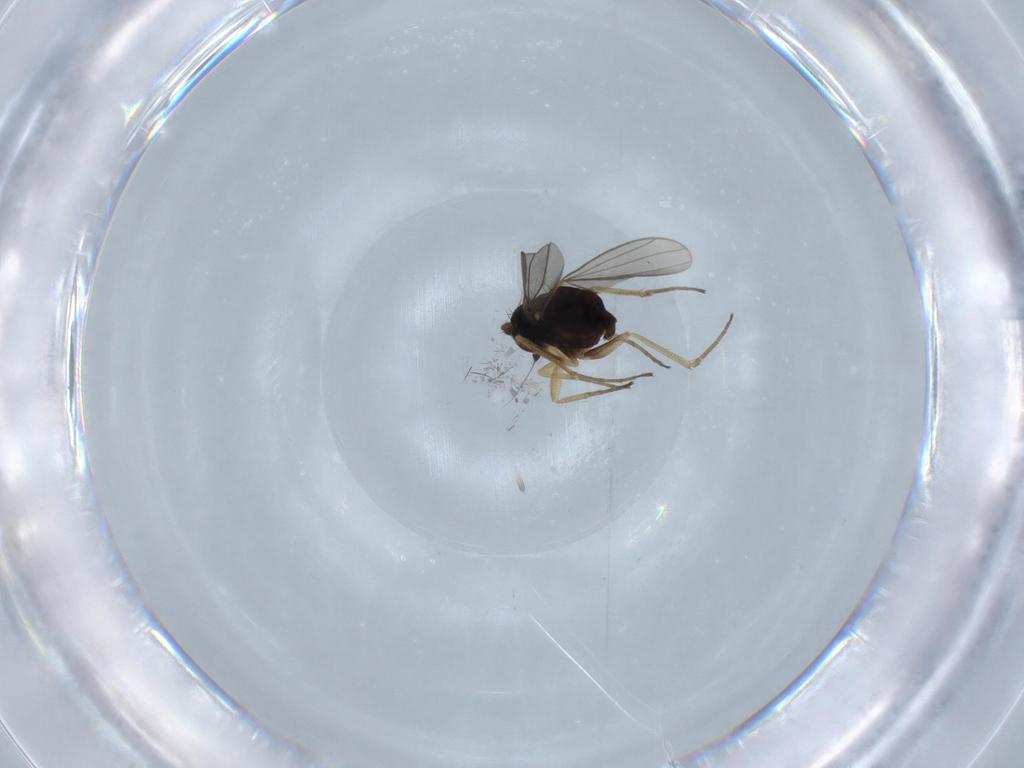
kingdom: Animalia
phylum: Arthropoda
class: Insecta
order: Diptera
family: Dolichopodidae
